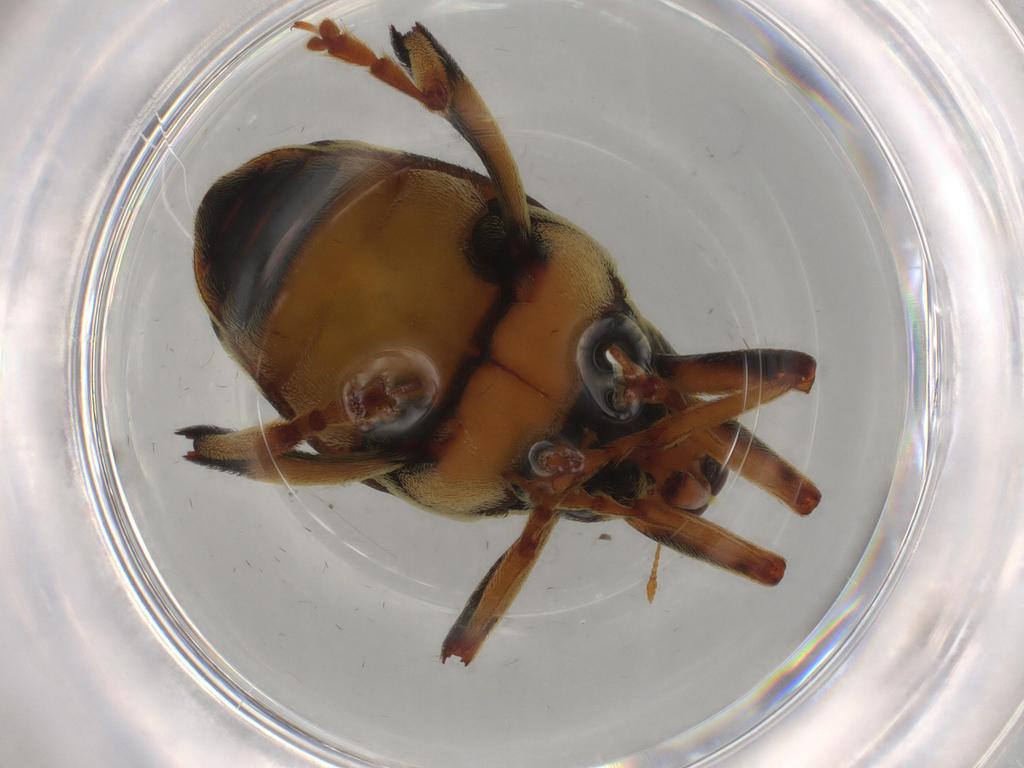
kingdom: Animalia
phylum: Arthropoda
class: Insecta
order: Coleoptera
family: Curculionidae
